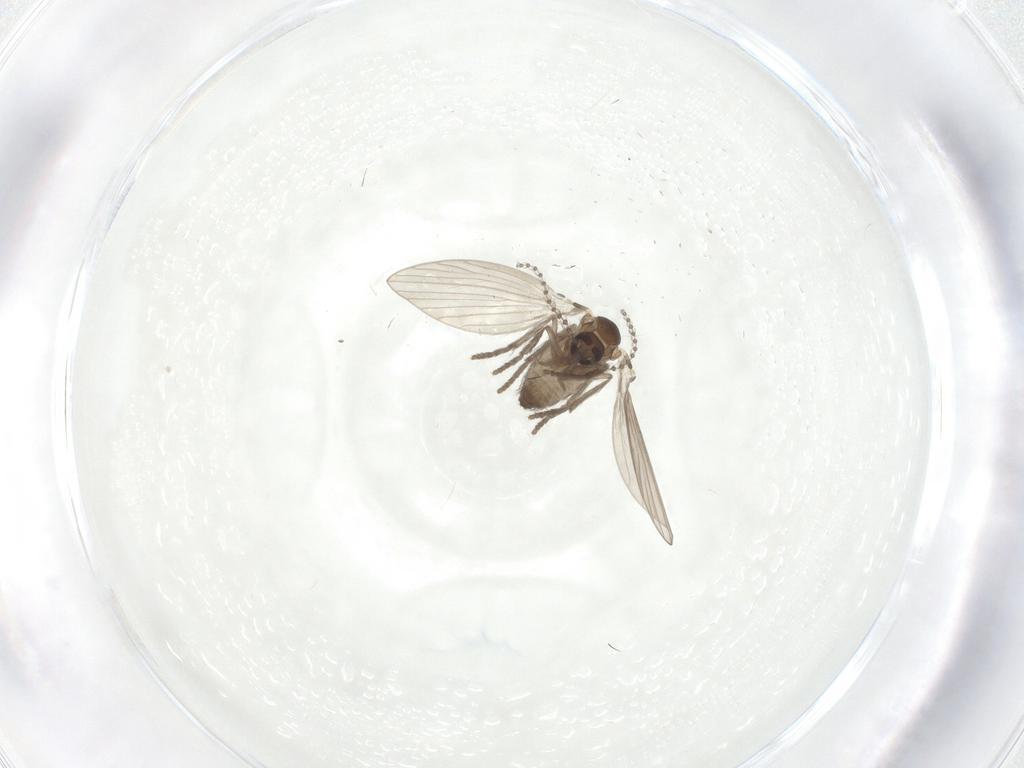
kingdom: Animalia
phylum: Arthropoda
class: Insecta
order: Diptera
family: Psychodidae
